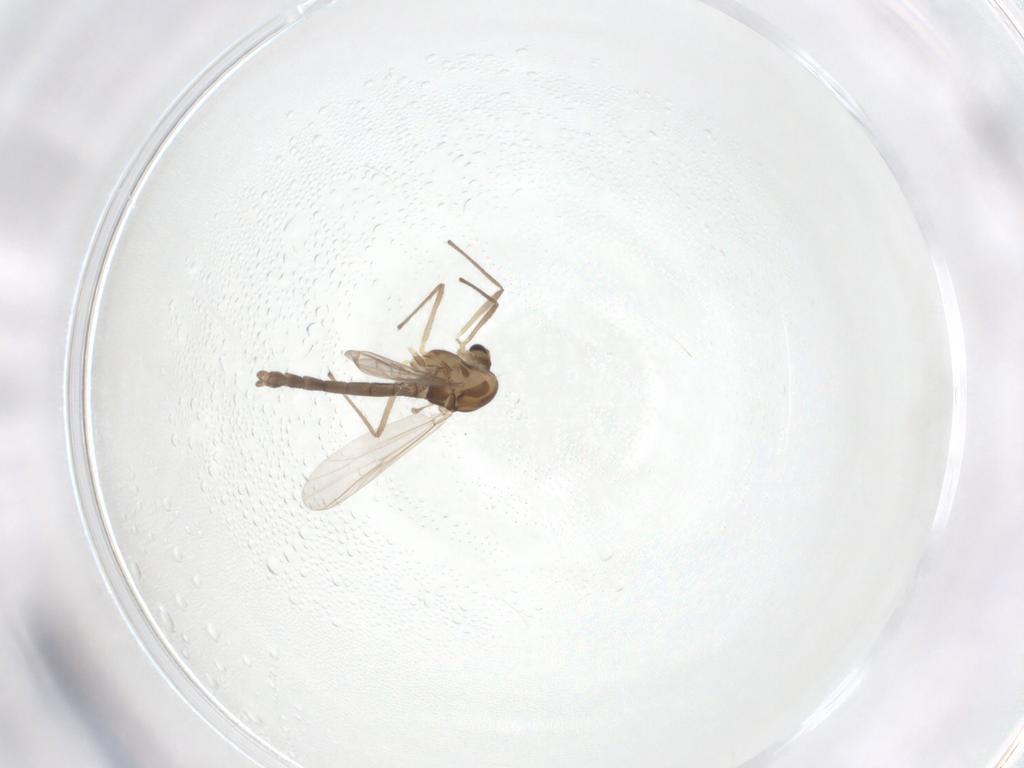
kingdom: Animalia
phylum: Arthropoda
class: Insecta
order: Diptera
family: Chironomidae
